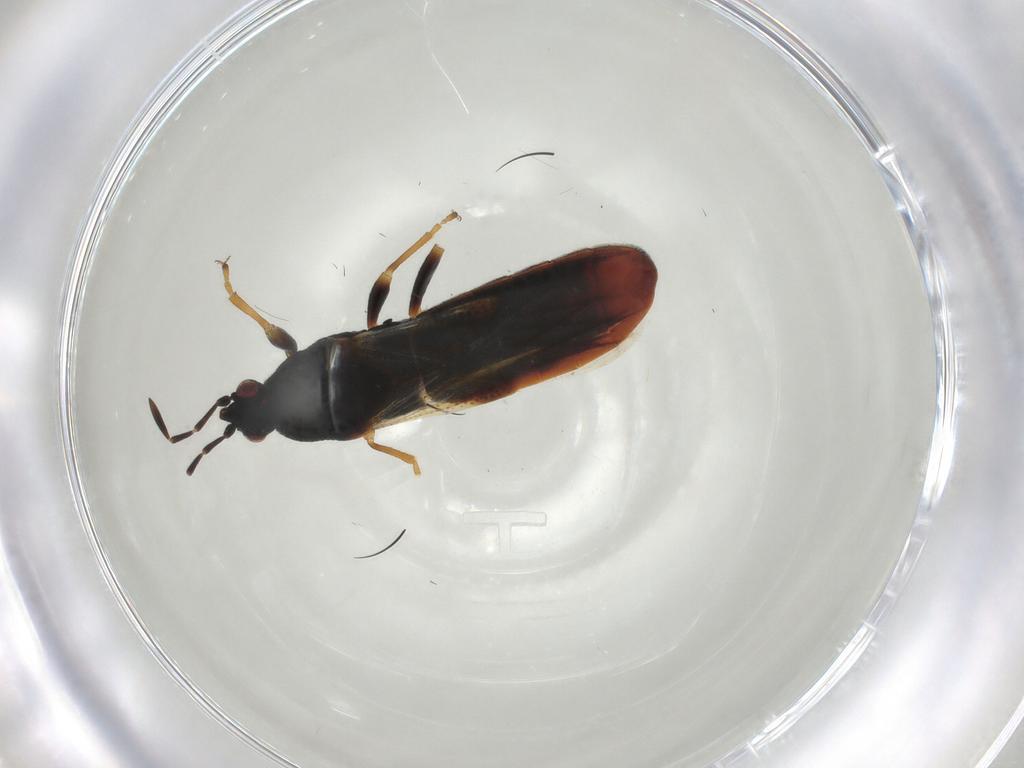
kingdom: Animalia
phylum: Arthropoda
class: Insecta
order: Hemiptera
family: Blissidae
